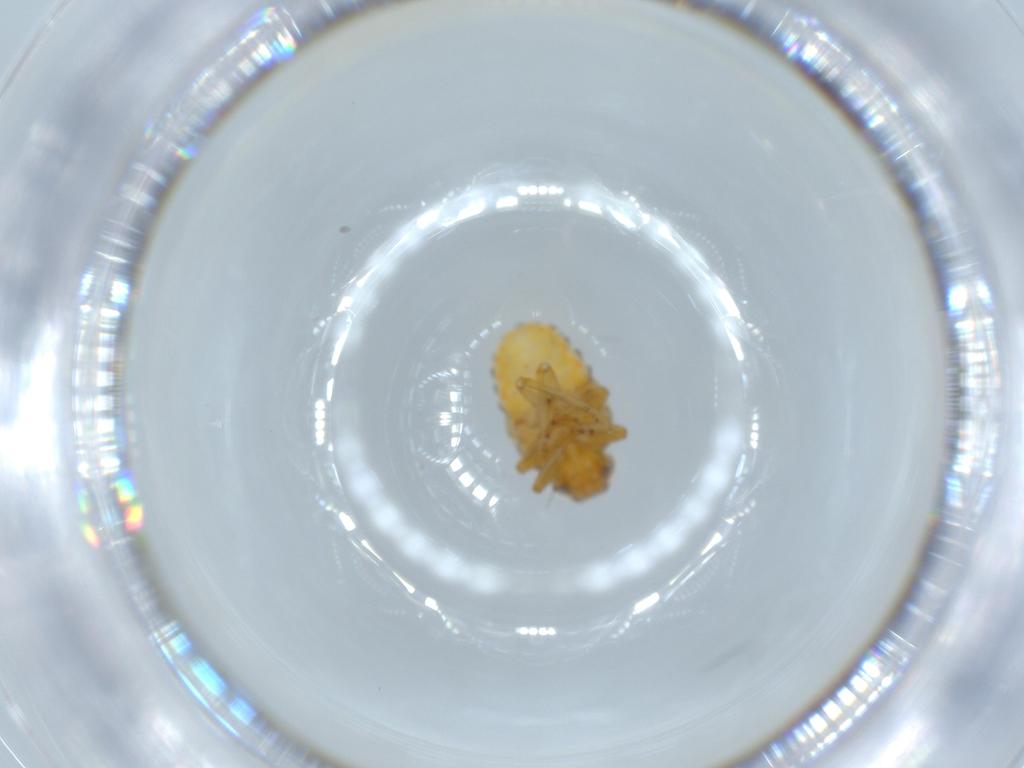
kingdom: Animalia
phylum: Arthropoda
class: Insecta
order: Hemiptera
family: Issidae
